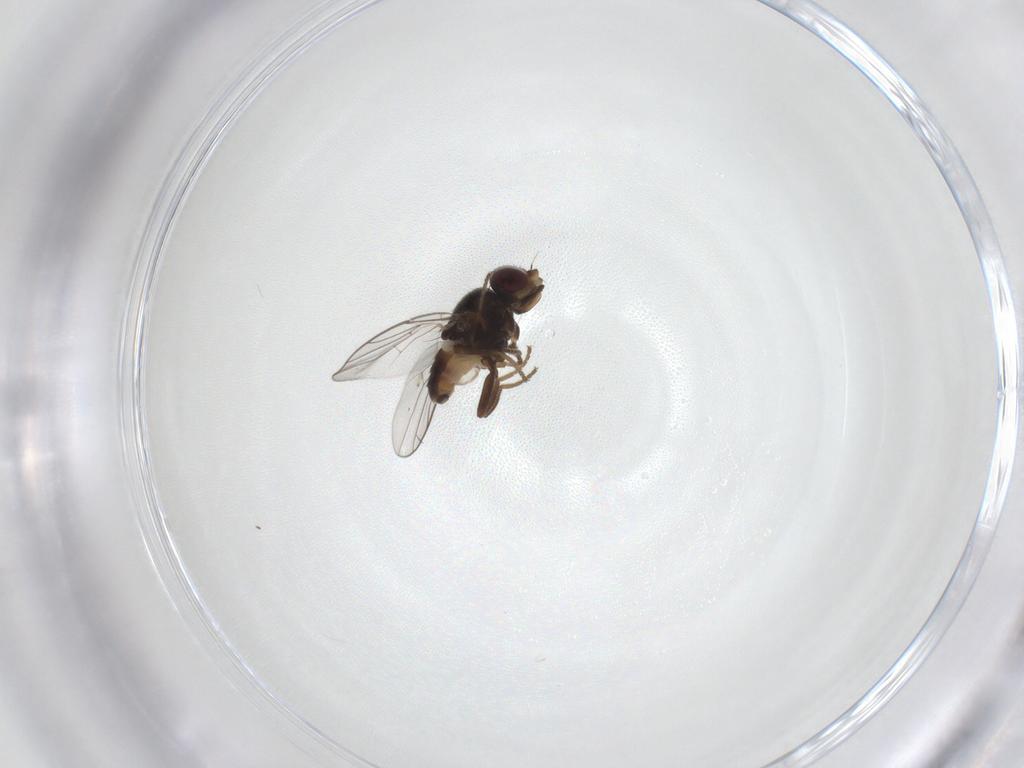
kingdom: Animalia
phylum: Arthropoda
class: Insecta
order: Diptera
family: Chloropidae
